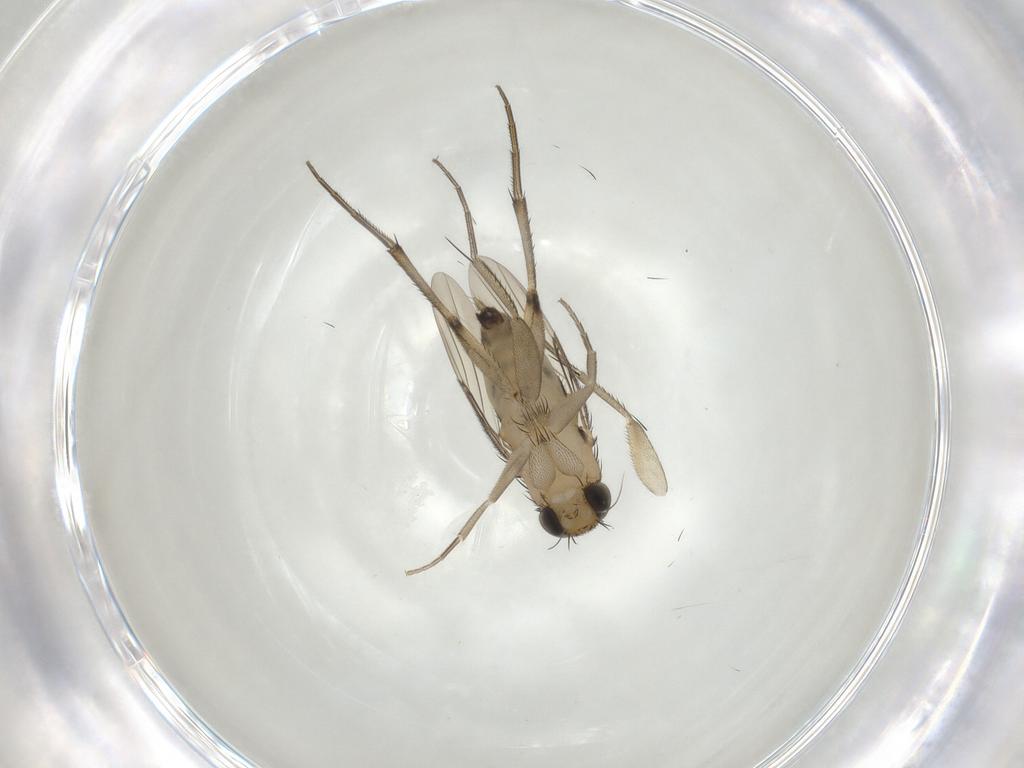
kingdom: Animalia
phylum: Arthropoda
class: Insecta
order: Diptera
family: Phoridae
